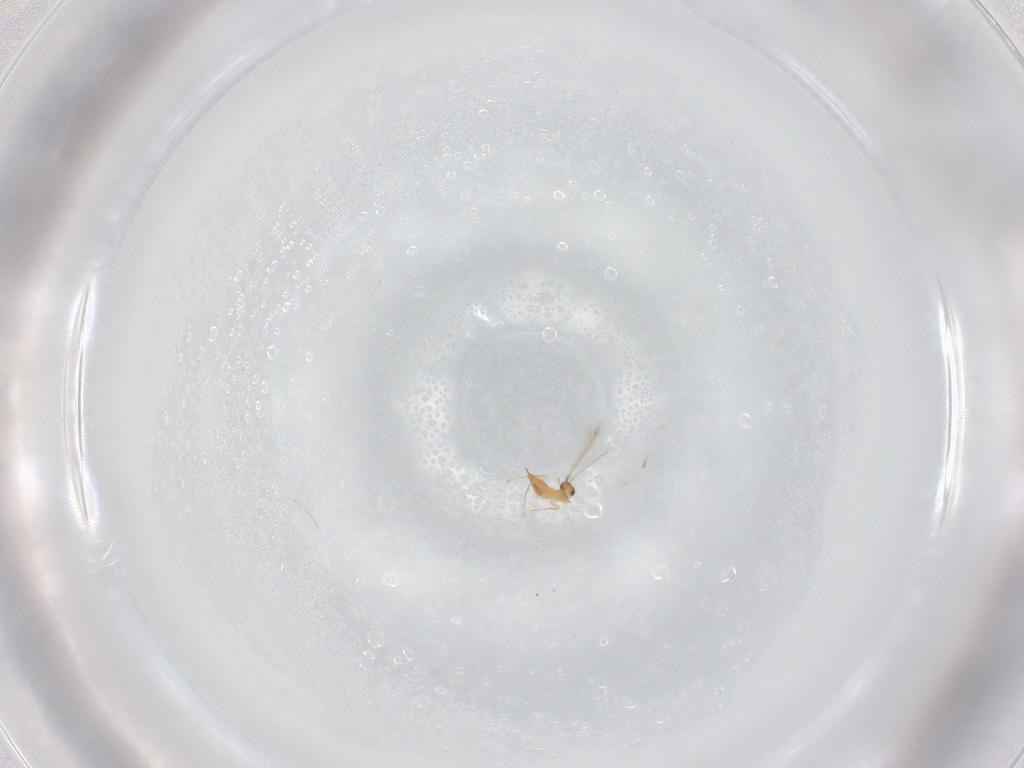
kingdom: Animalia
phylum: Arthropoda
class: Insecta
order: Hymenoptera
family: Mymaridae
